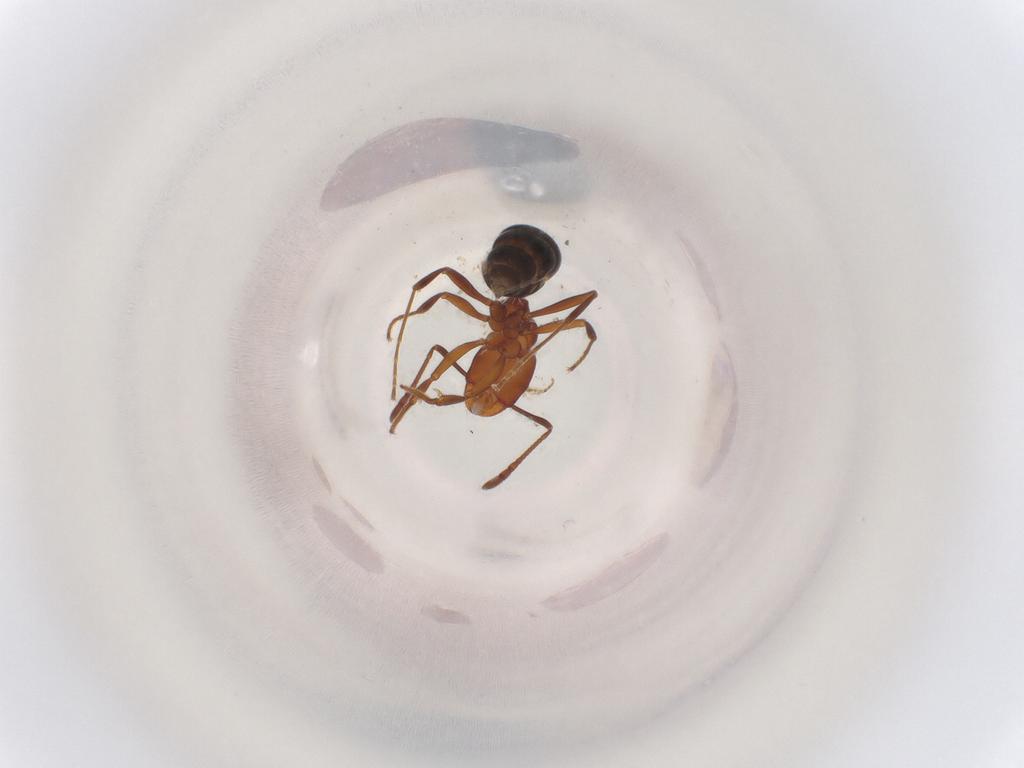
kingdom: Animalia
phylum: Arthropoda
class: Insecta
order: Hymenoptera
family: Formicidae
